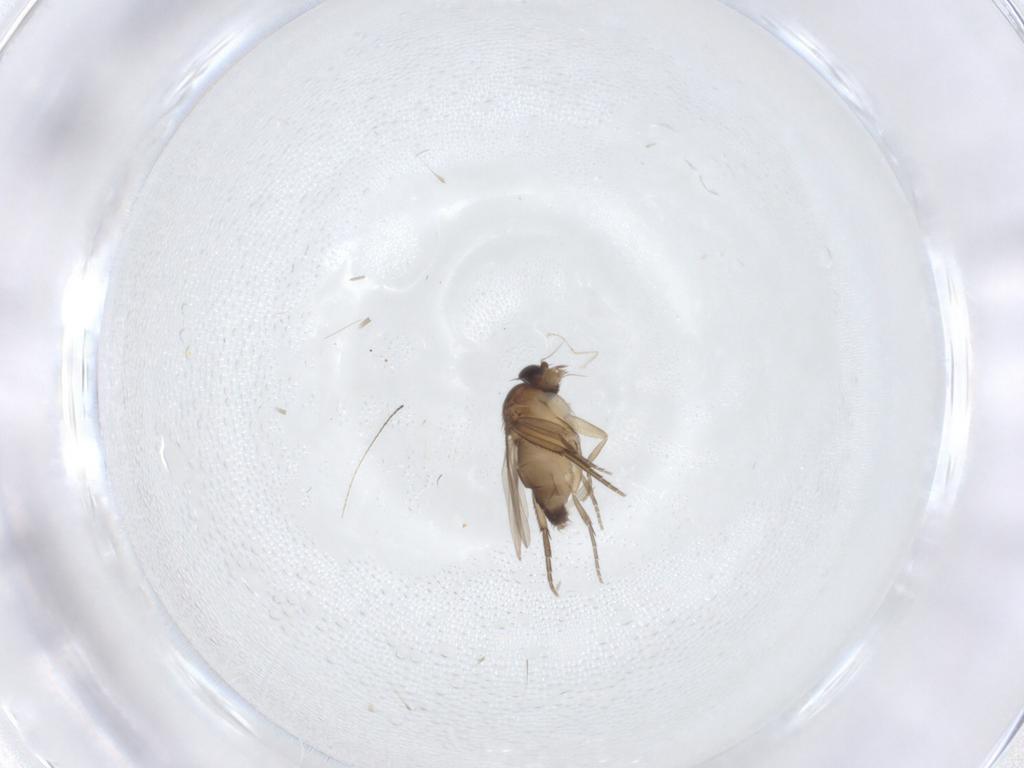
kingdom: Animalia
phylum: Arthropoda
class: Insecta
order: Diptera
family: Phoridae
